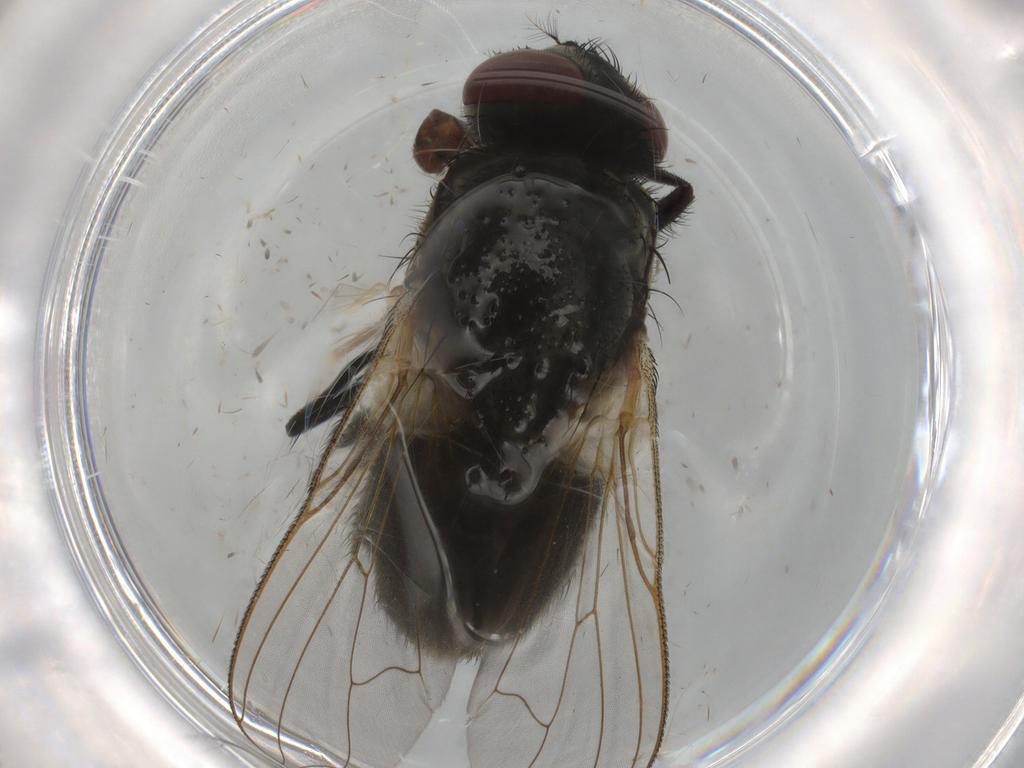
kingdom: Animalia
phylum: Arthropoda
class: Insecta
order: Diptera
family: Muscidae
